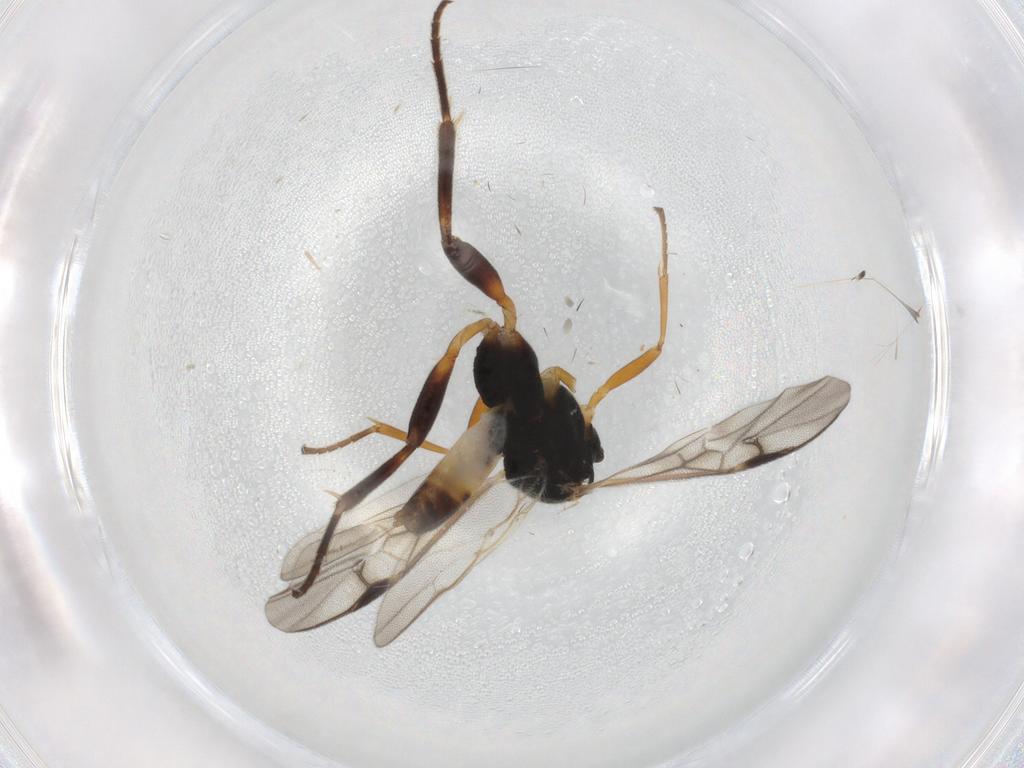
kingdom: Animalia
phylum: Arthropoda
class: Insecta
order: Hymenoptera
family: Braconidae
